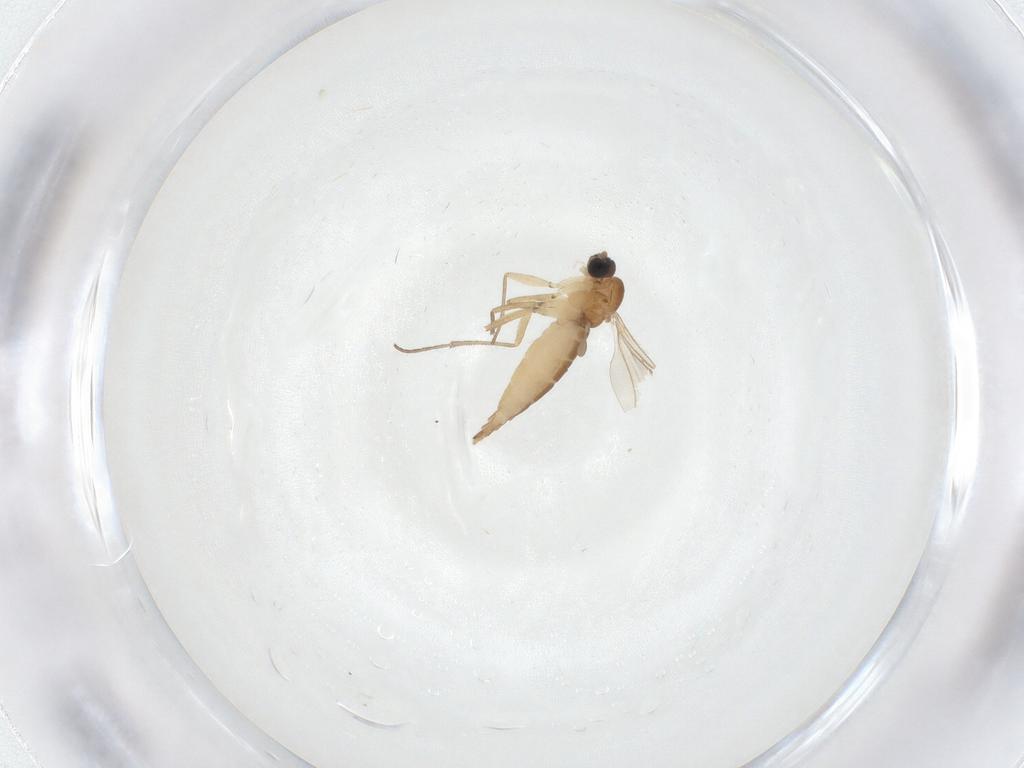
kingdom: Animalia
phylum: Arthropoda
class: Insecta
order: Diptera
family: Sciaridae
